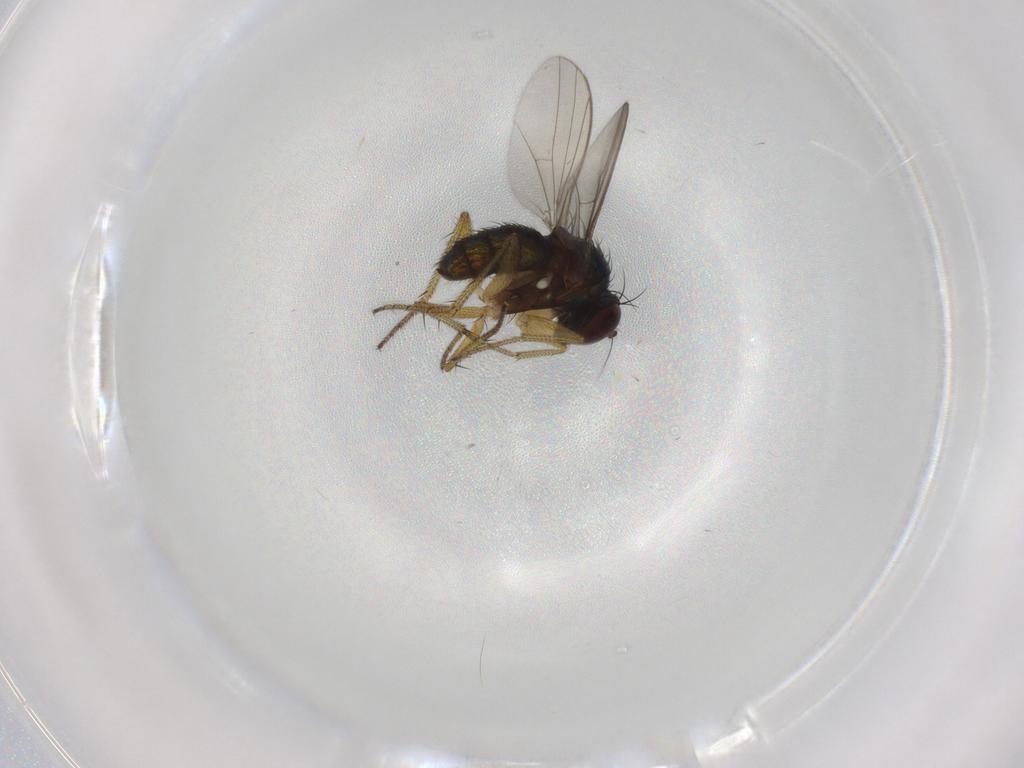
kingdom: Animalia
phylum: Arthropoda
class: Insecta
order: Diptera
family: Dolichopodidae
